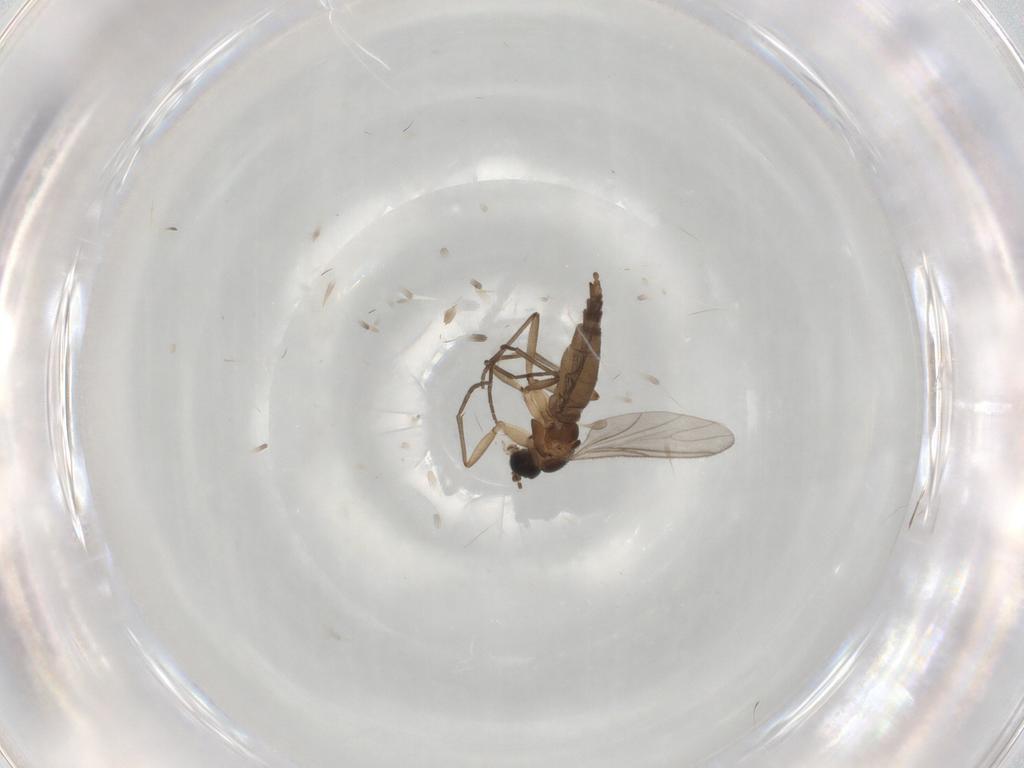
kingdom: Animalia
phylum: Arthropoda
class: Insecta
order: Diptera
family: Sciaridae
